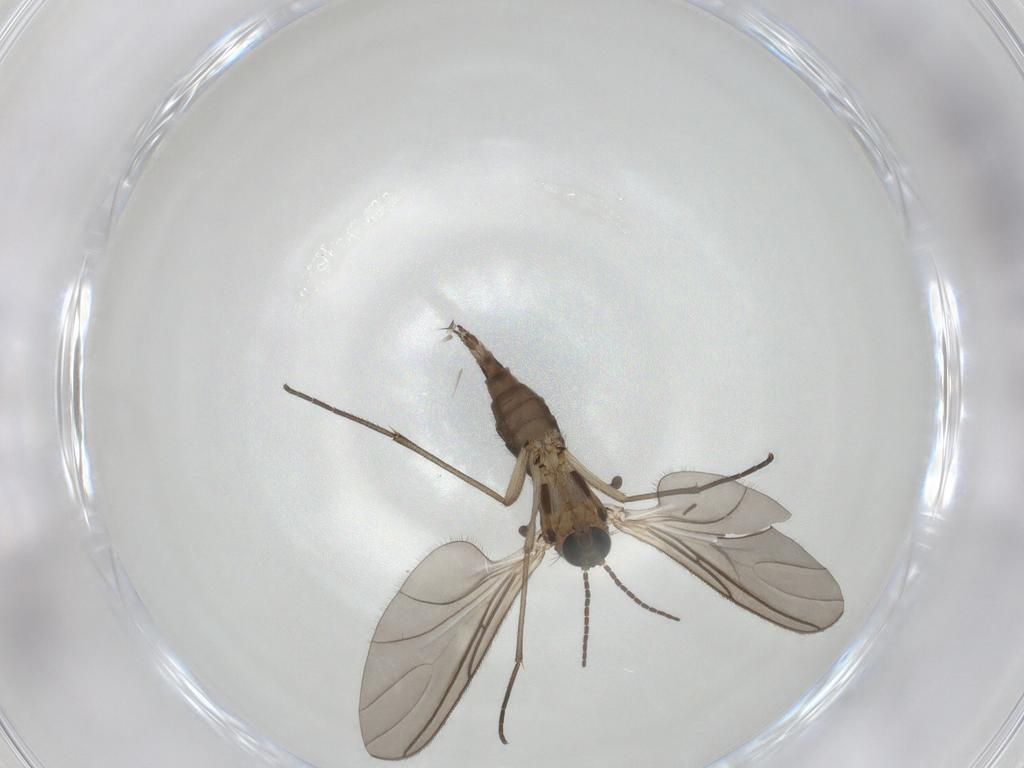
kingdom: Animalia
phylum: Arthropoda
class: Insecta
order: Diptera
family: Sciaridae
